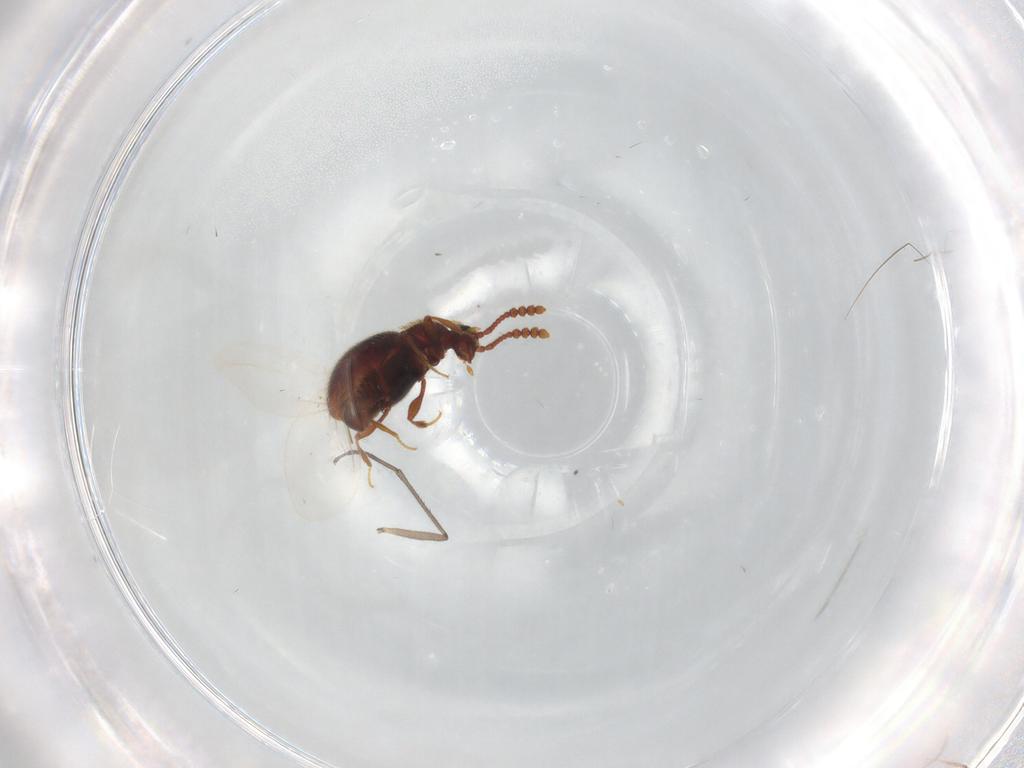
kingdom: Animalia
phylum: Arthropoda
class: Insecta
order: Coleoptera
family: Staphylinidae
